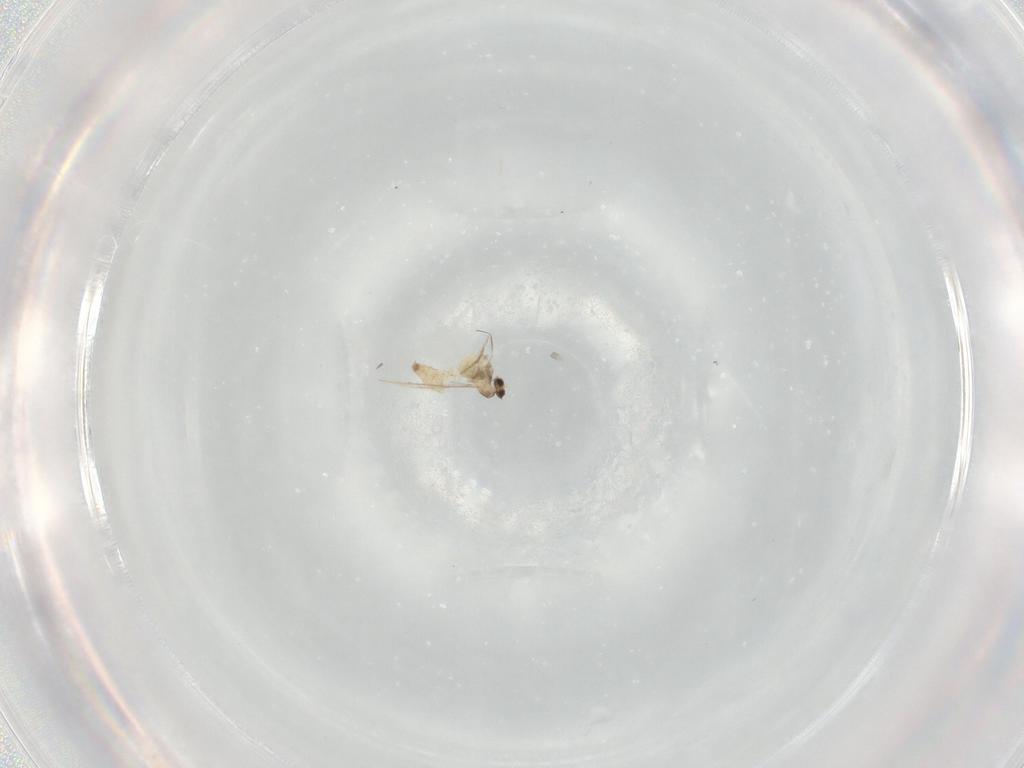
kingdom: Animalia
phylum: Arthropoda
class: Insecta
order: Diptera
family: Cecidomyiidae
